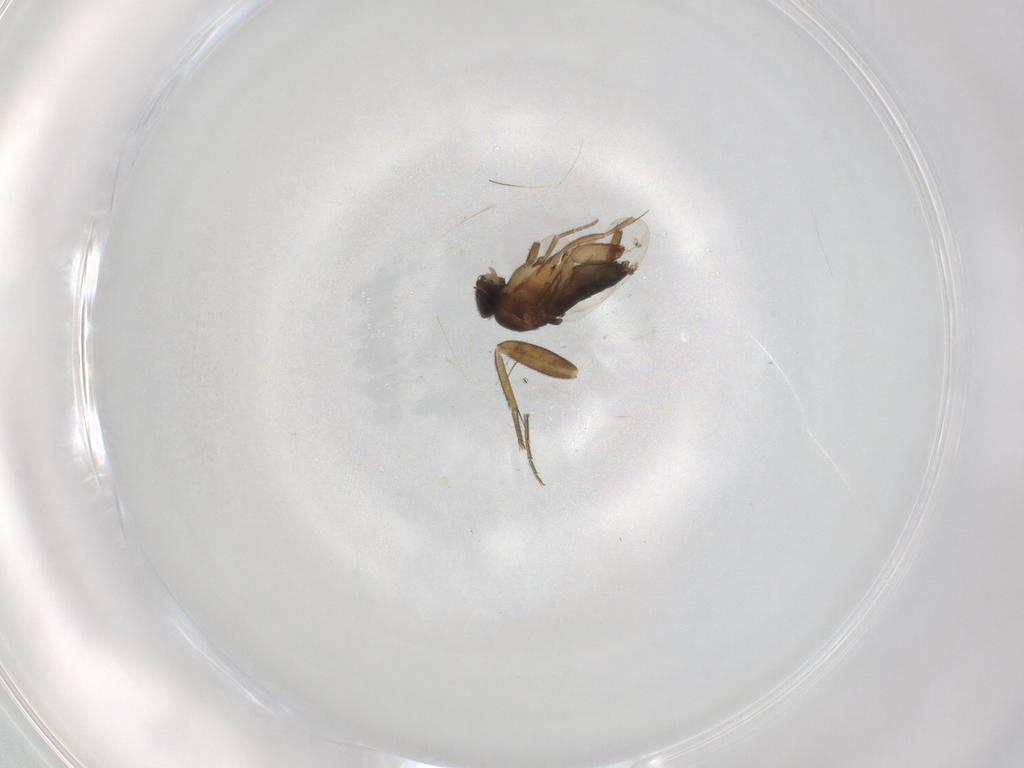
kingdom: Animalia
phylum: Arthropoda
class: Insecta
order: Diptera
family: Phoridae
